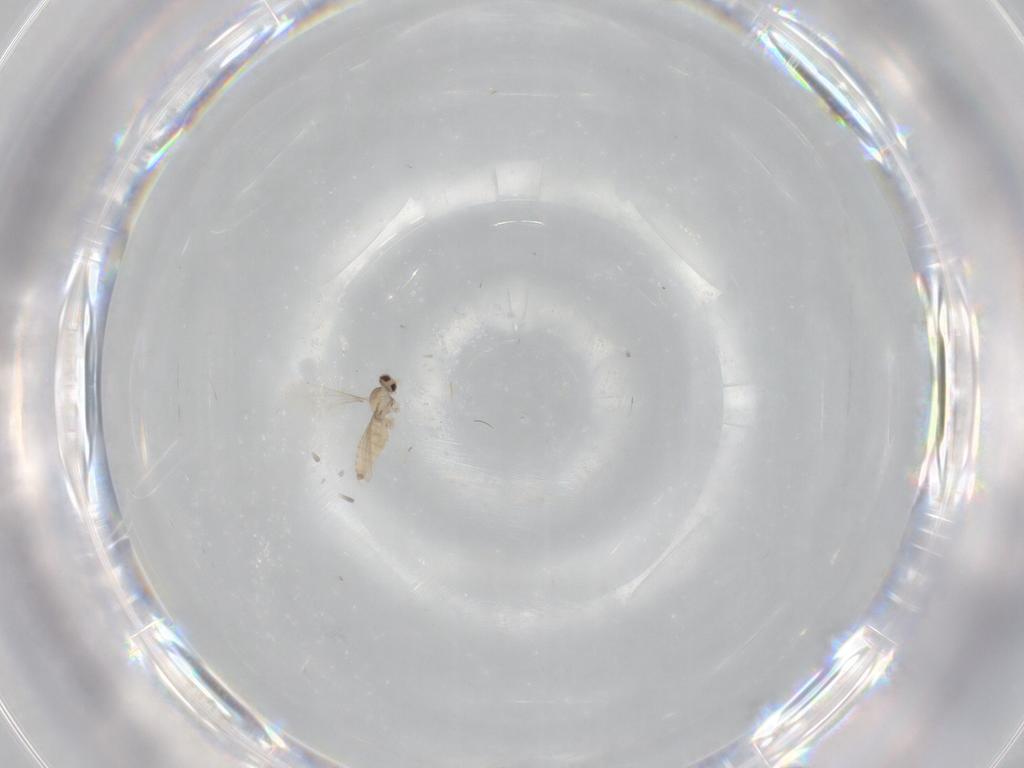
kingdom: Animalia
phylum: Arthropoda
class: Insecta
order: Diptera
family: Cecidomyiidae
